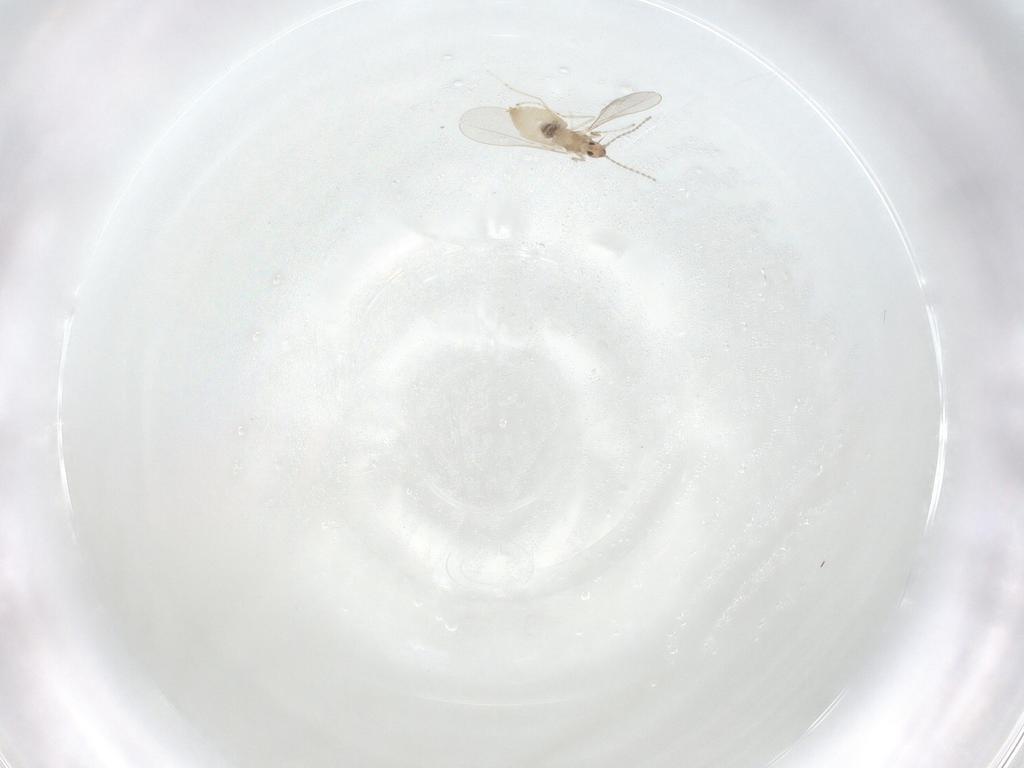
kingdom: Animalia
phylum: Arthropoda
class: Insecta
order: Diptera
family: Cecidomyiidae
